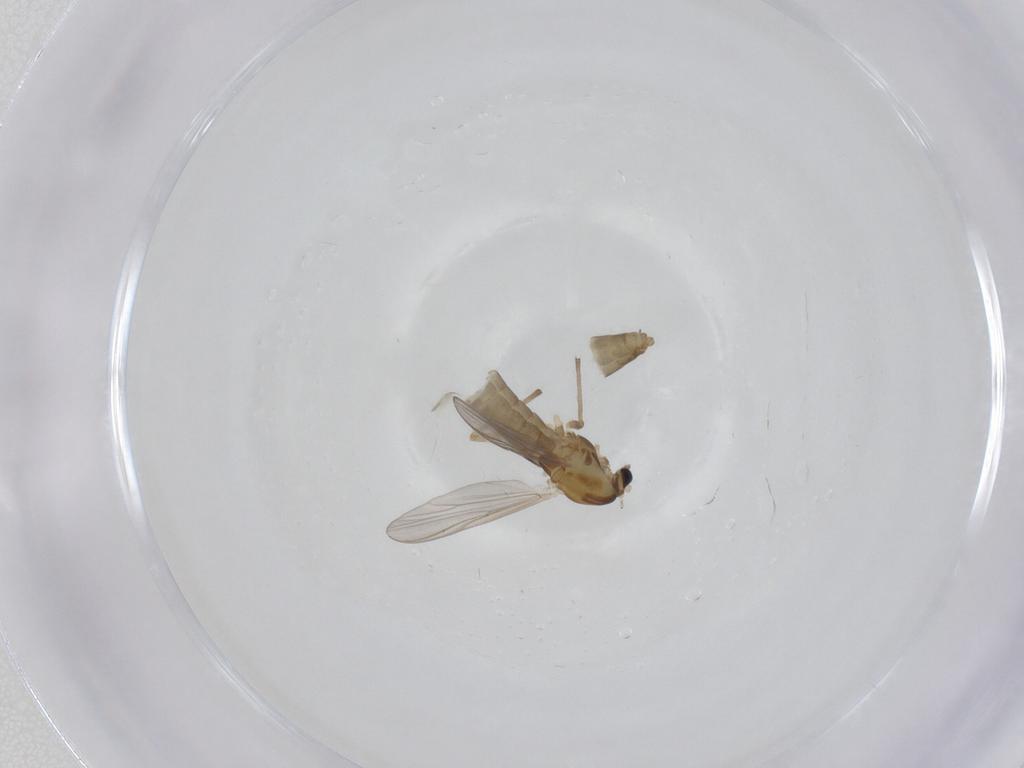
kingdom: Animalia
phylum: Arthropoda
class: Insecta
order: Diptera
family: Chironomidae
